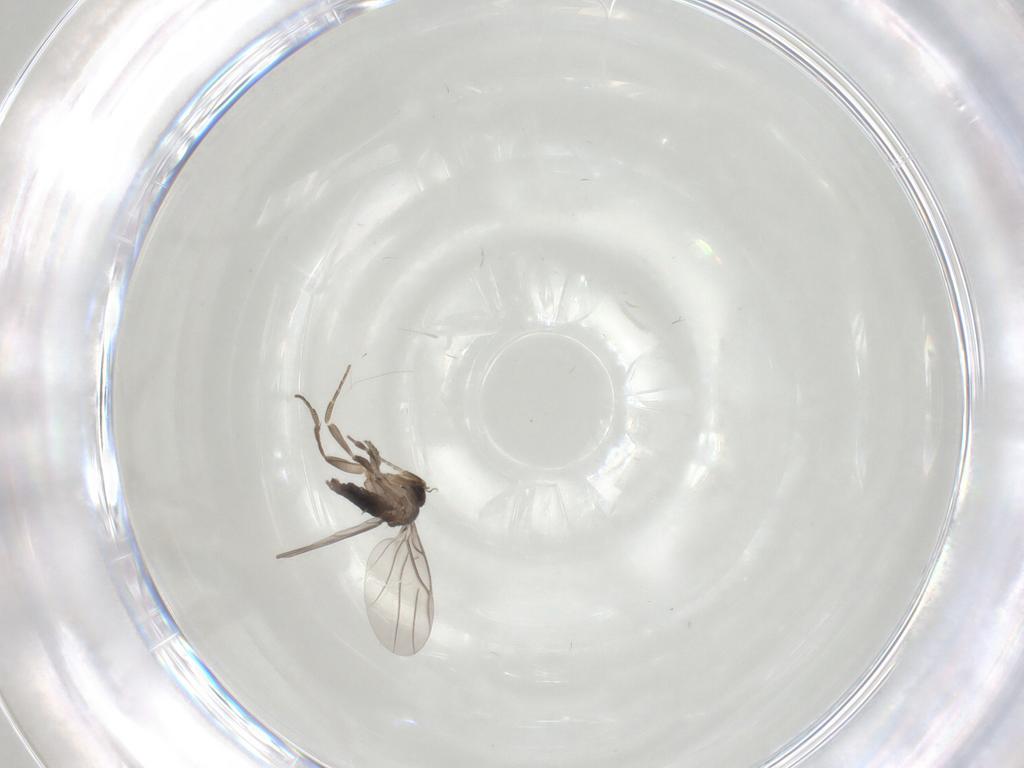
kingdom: Animalia
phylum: Arthropoda
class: Insecta
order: Diptera
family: Chironomidae
